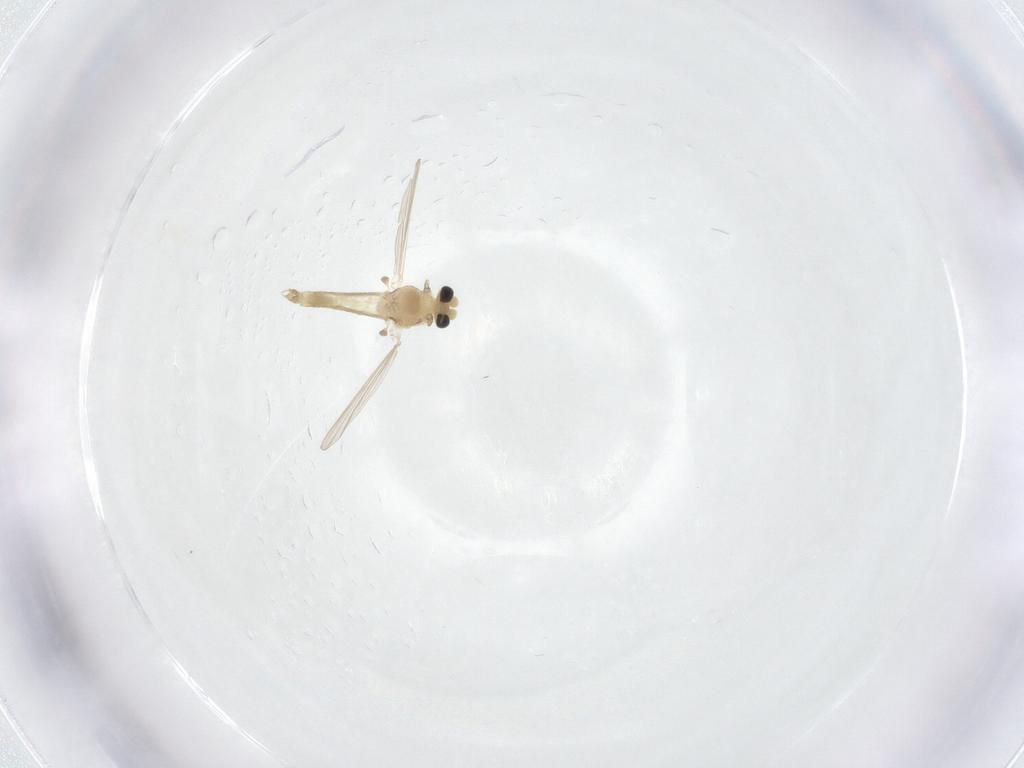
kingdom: Animalia
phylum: Arthropoda
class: Insecta
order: Diptera
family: Chironomidae
